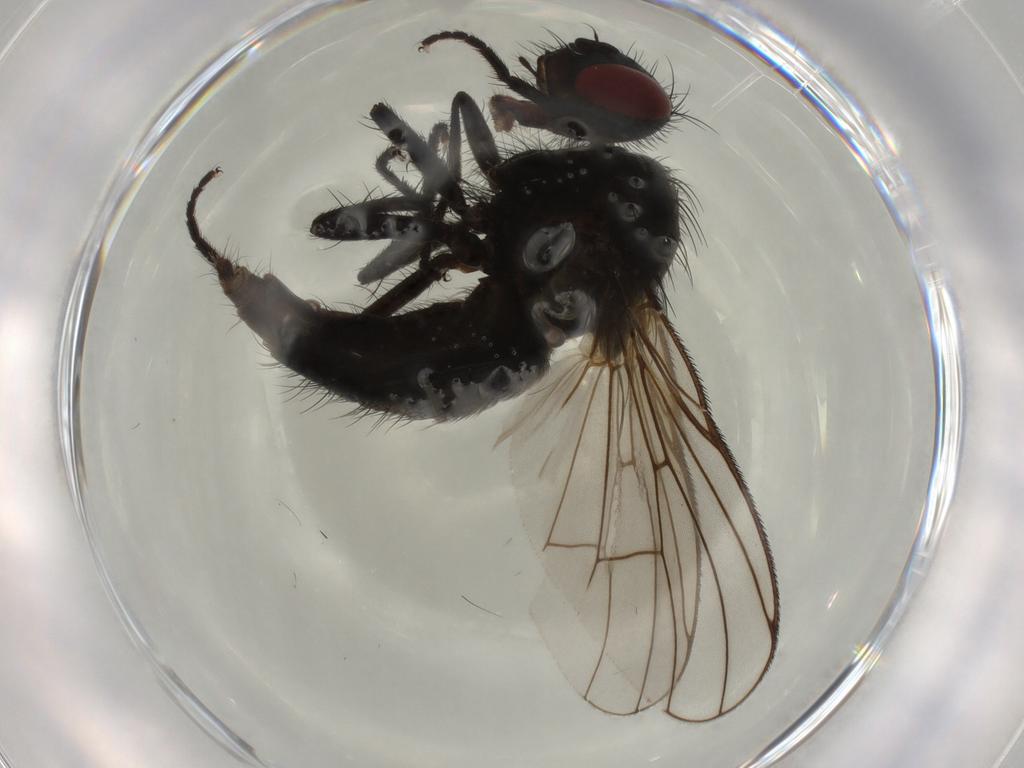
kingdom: Animalia
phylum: Arthropoda
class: Insecta
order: Diptera
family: Muscidae
